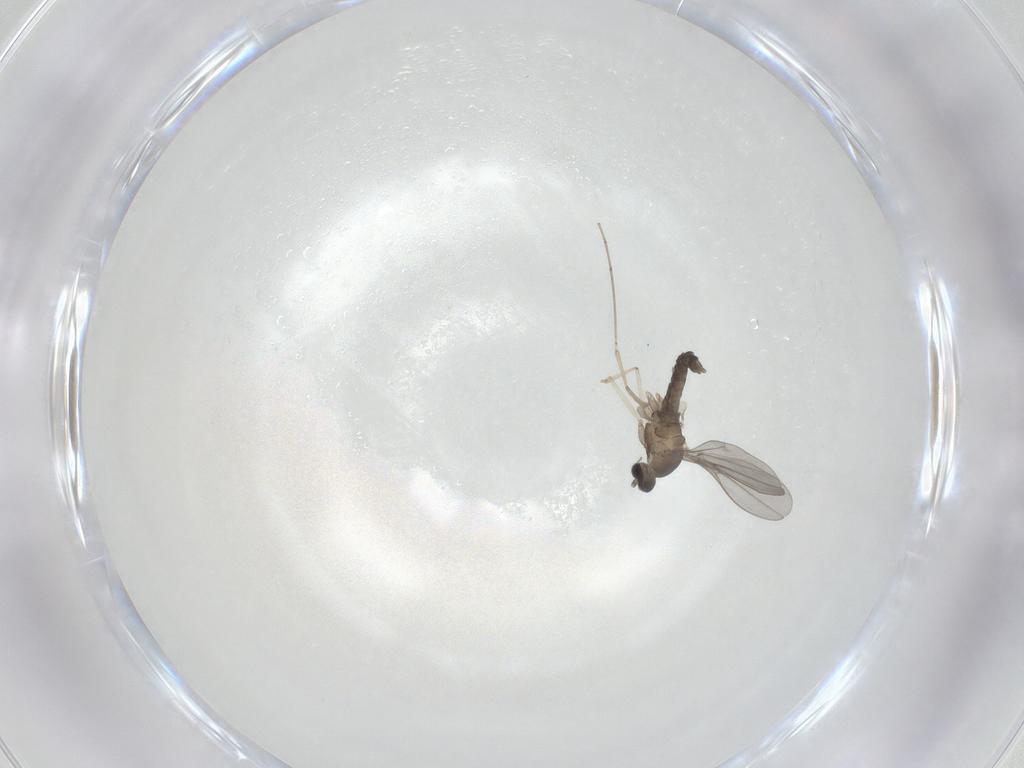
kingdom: Animalia
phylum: Arthropoda
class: Insecta
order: Diptera
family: Cecidomyiidae
